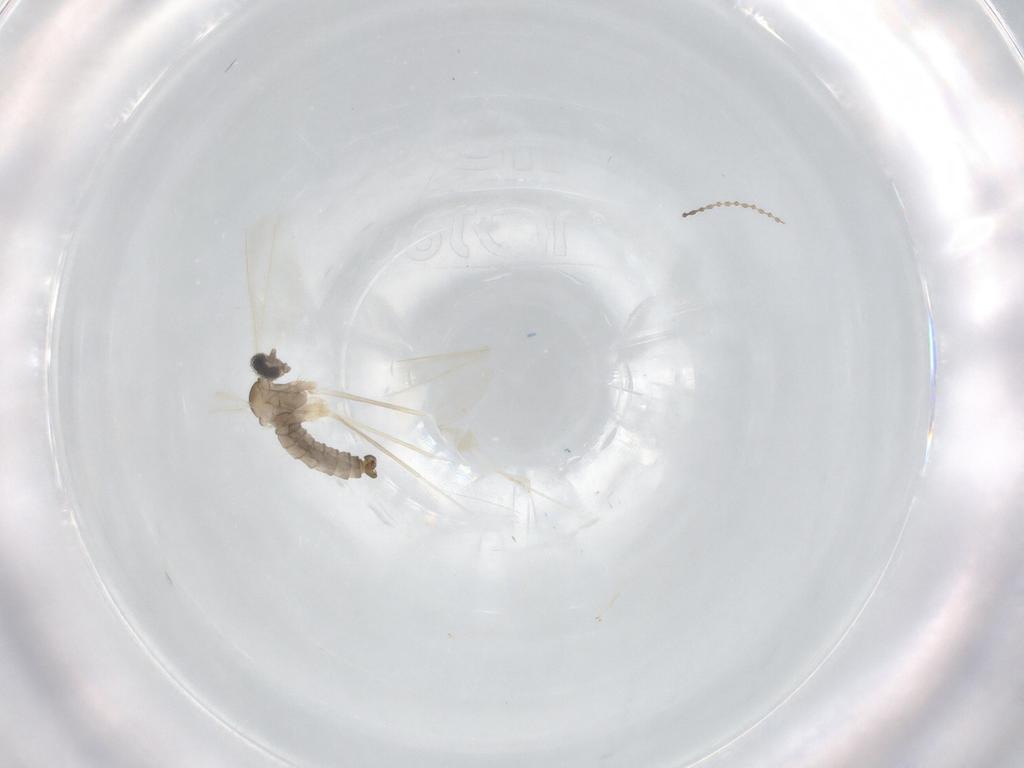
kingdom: Animalia
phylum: Arthropoda
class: Insecta
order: Diptera
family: Cecidomyiidae
